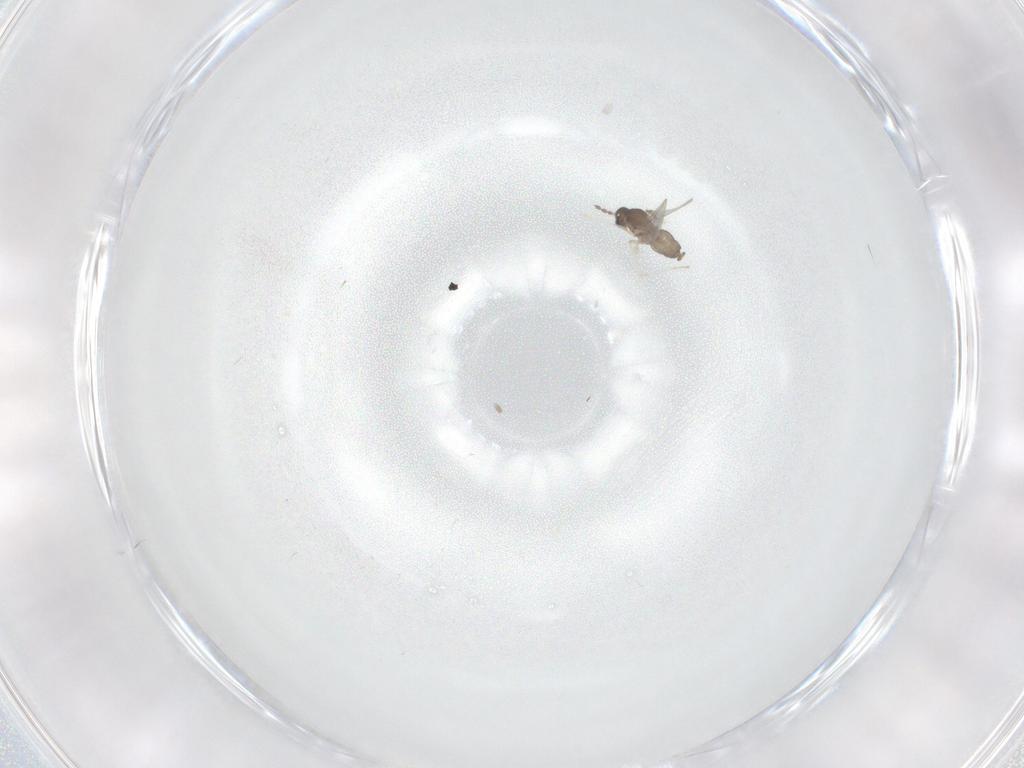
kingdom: Animalia
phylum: Arthropoda
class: Insecta
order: Diptera
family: Cecidomyiidae
